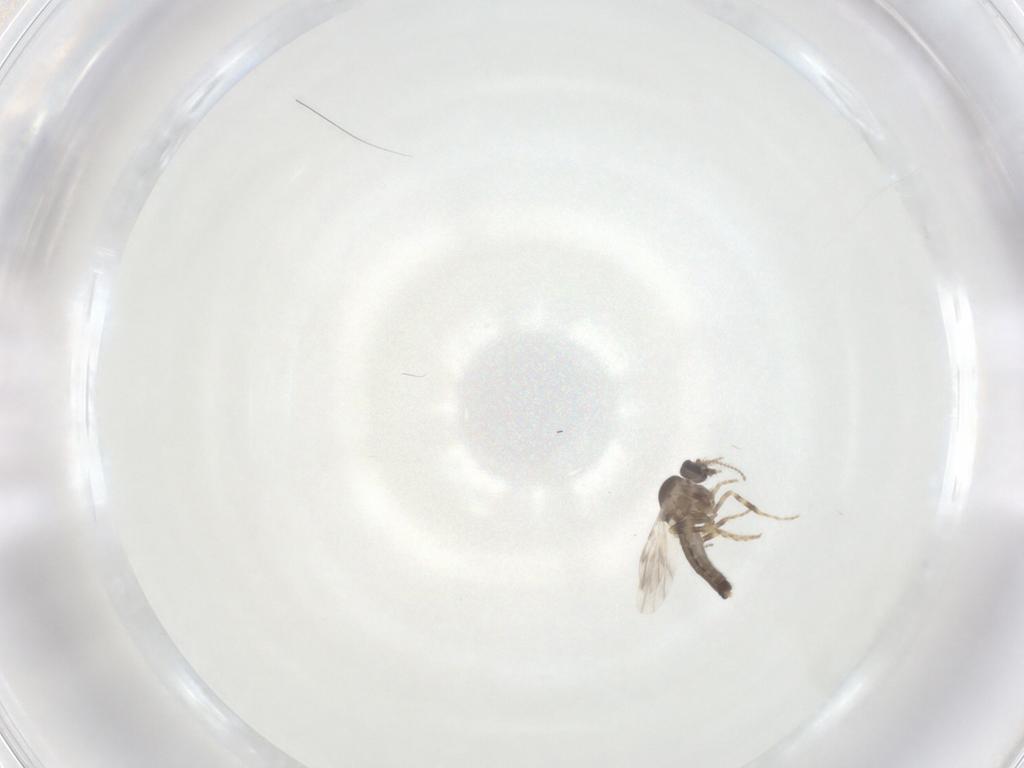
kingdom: Animalia
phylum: Arthropoda
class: Insecta
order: Diptera
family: Ceratopogonidae
